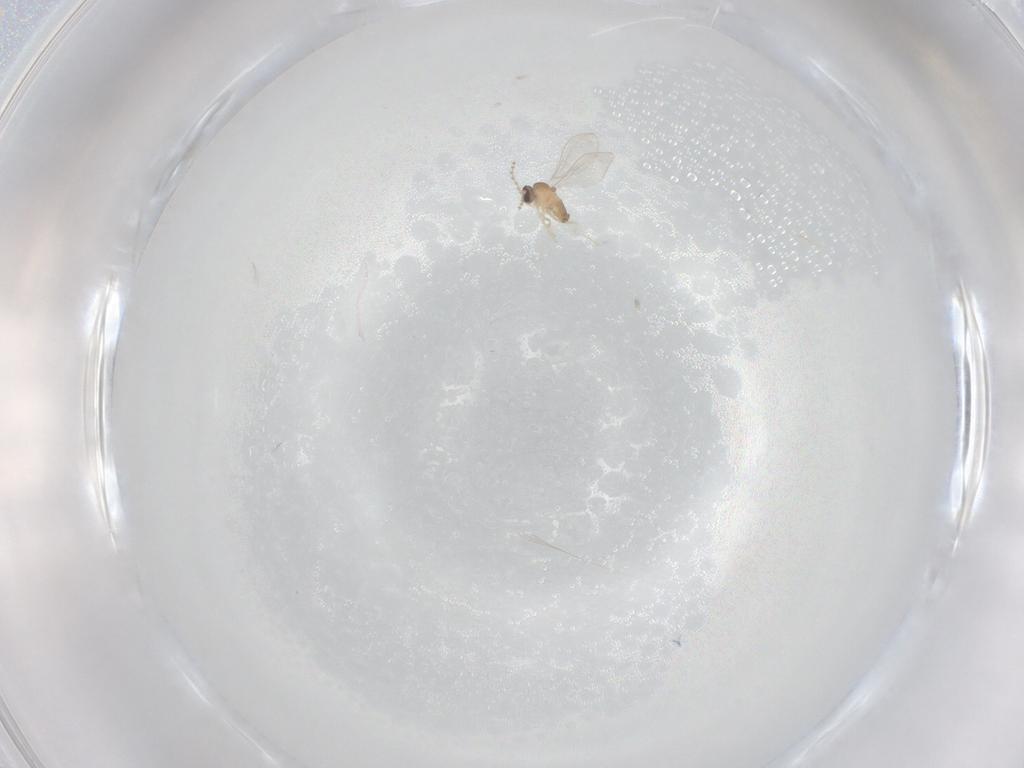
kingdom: Animalia
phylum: Arthropoda
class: Insecta
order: Diptera
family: Cecidomyiidae
